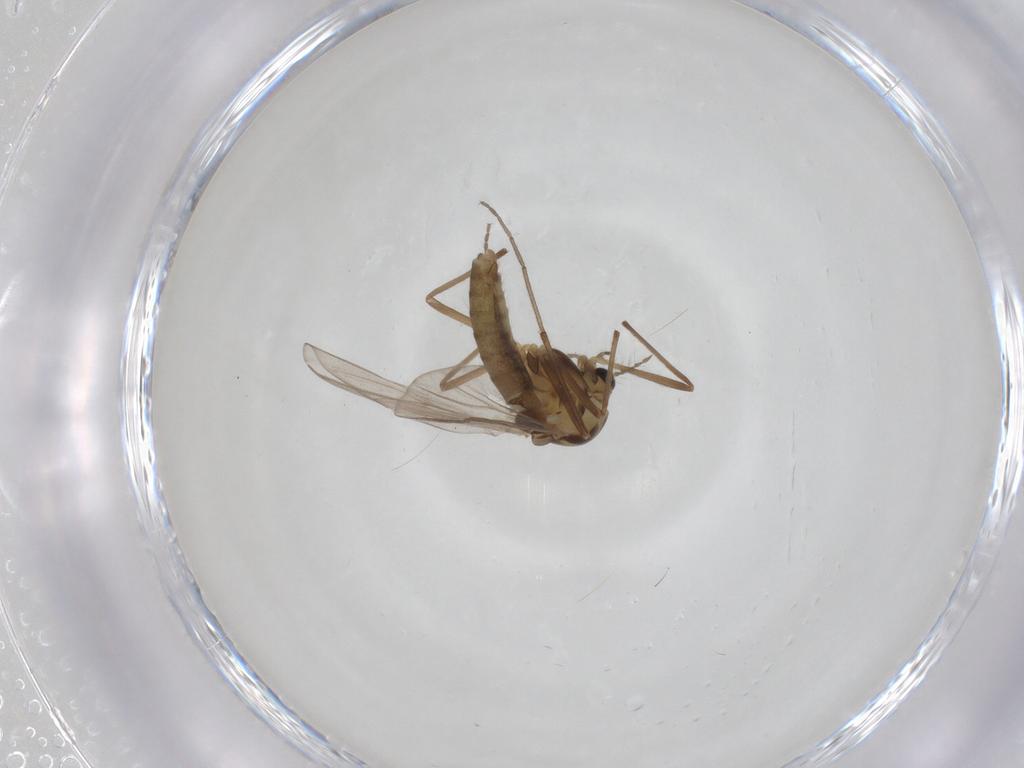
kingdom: Animalia
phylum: Arthropoda
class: Insecta
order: Diptera
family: Chironomidae
